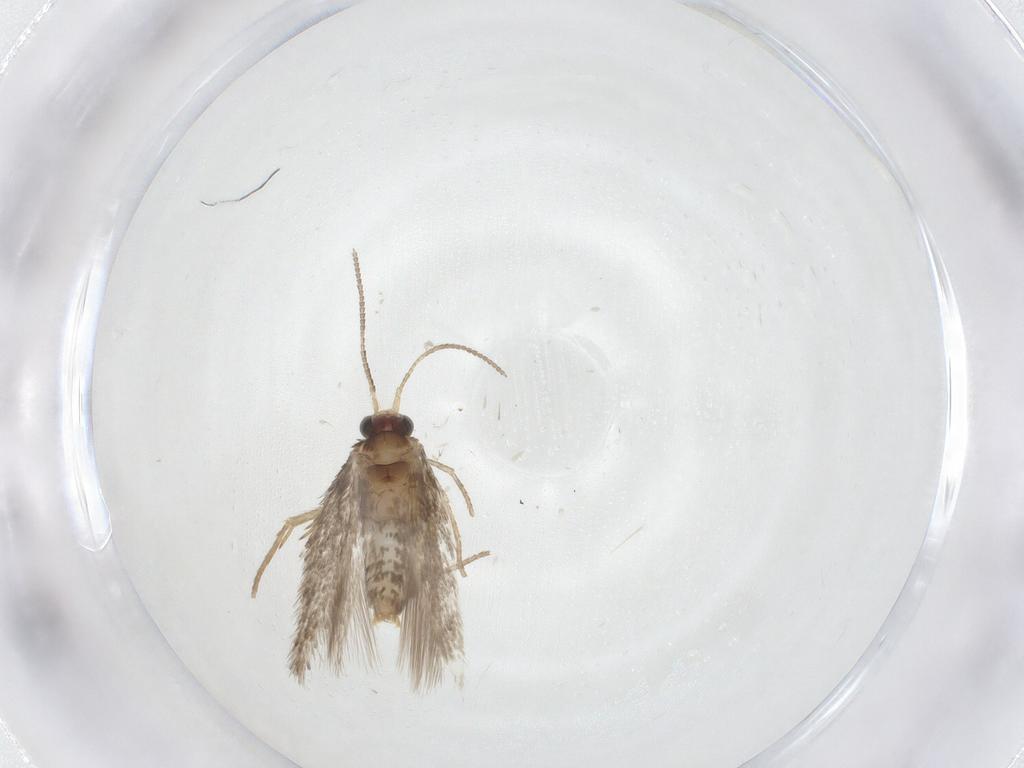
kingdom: Animalia
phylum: Arthropoda
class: Insecta
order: Lepidoptera
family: Nepticulidae
